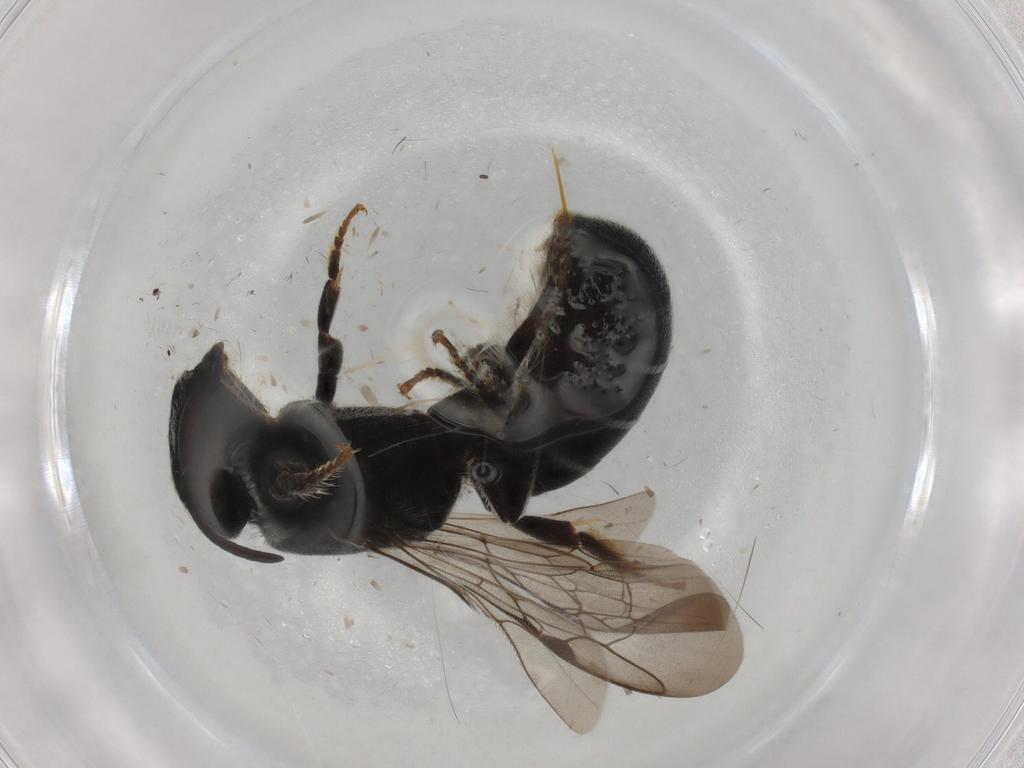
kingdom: Animalia
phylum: Arthropoda
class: Insecta
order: Hymenoptera
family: Megachilidae
